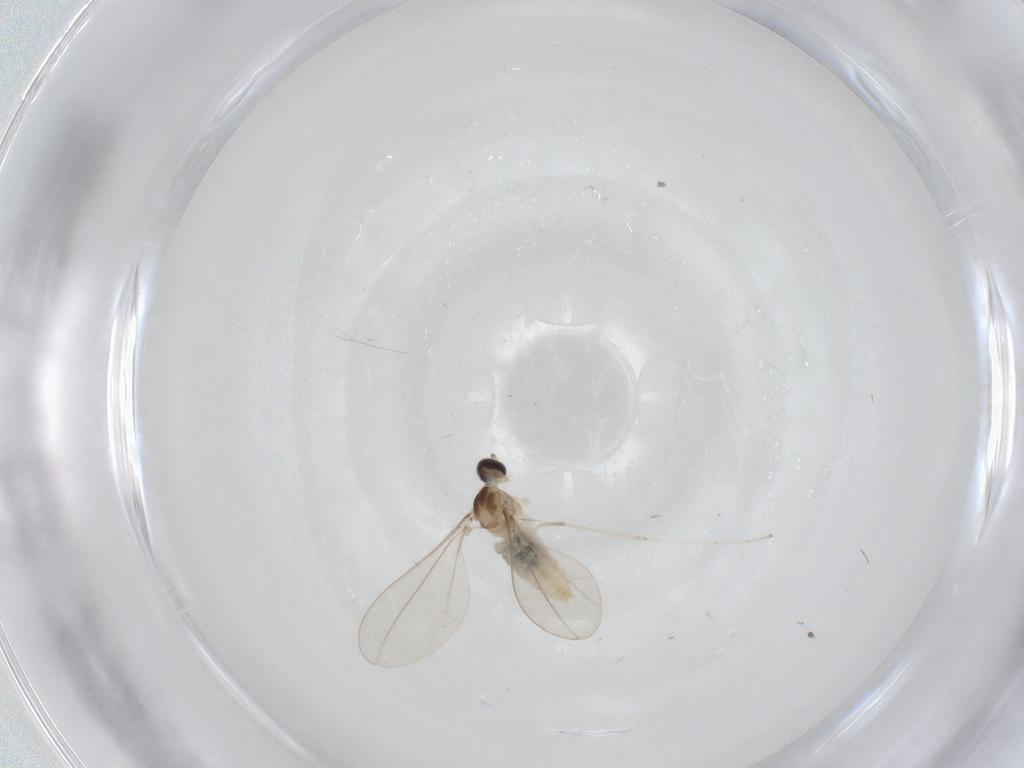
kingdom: Animalia
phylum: Arthropoda
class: Insecta
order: Diptera
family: Cecidomyiidae
